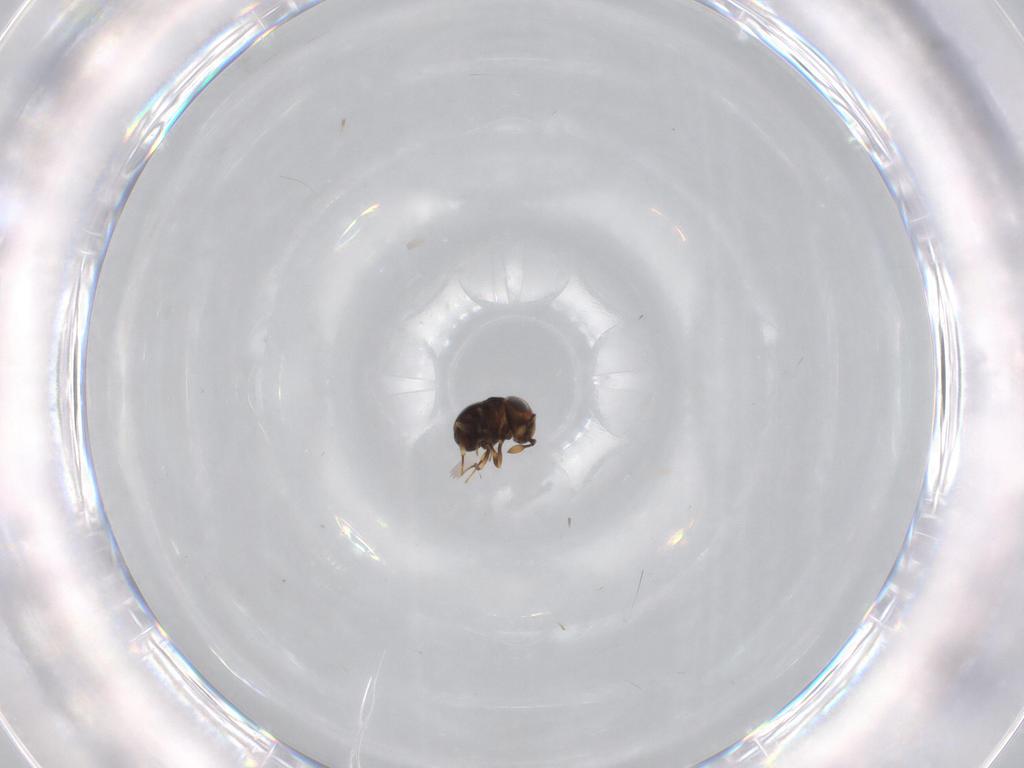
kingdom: Animalia
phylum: Arthropoda
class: Insecta
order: Hymenoptera
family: Scelionidae
